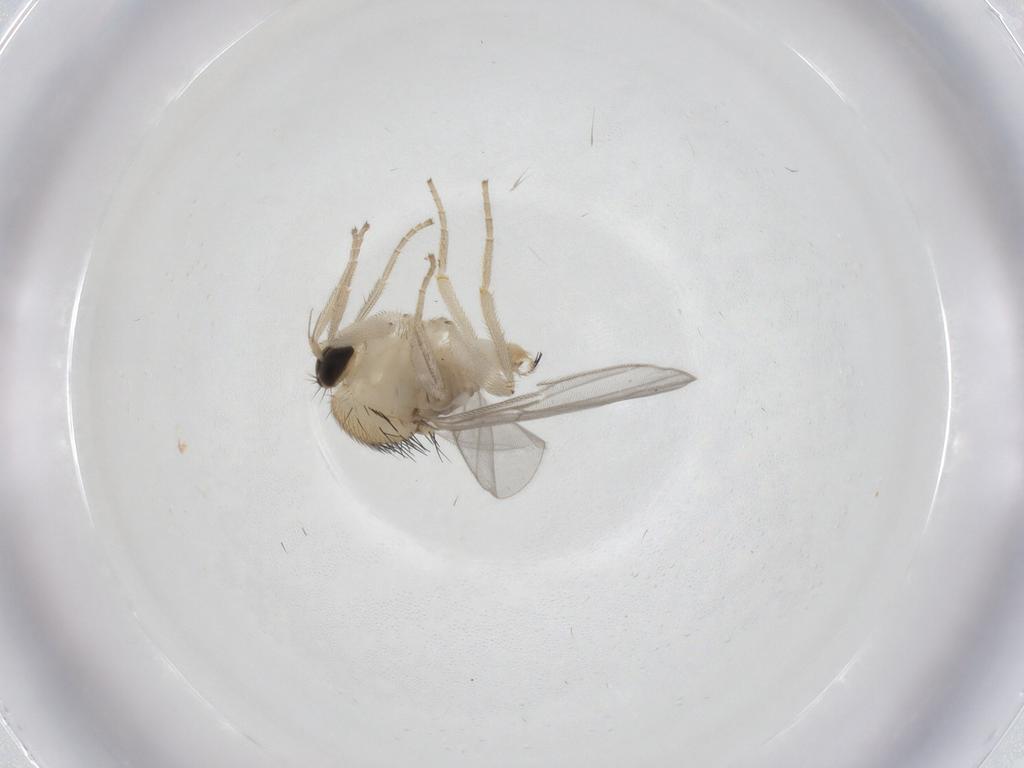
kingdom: Animalia
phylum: Arthropoda
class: Insecta
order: Diptera
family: Hybotidae
